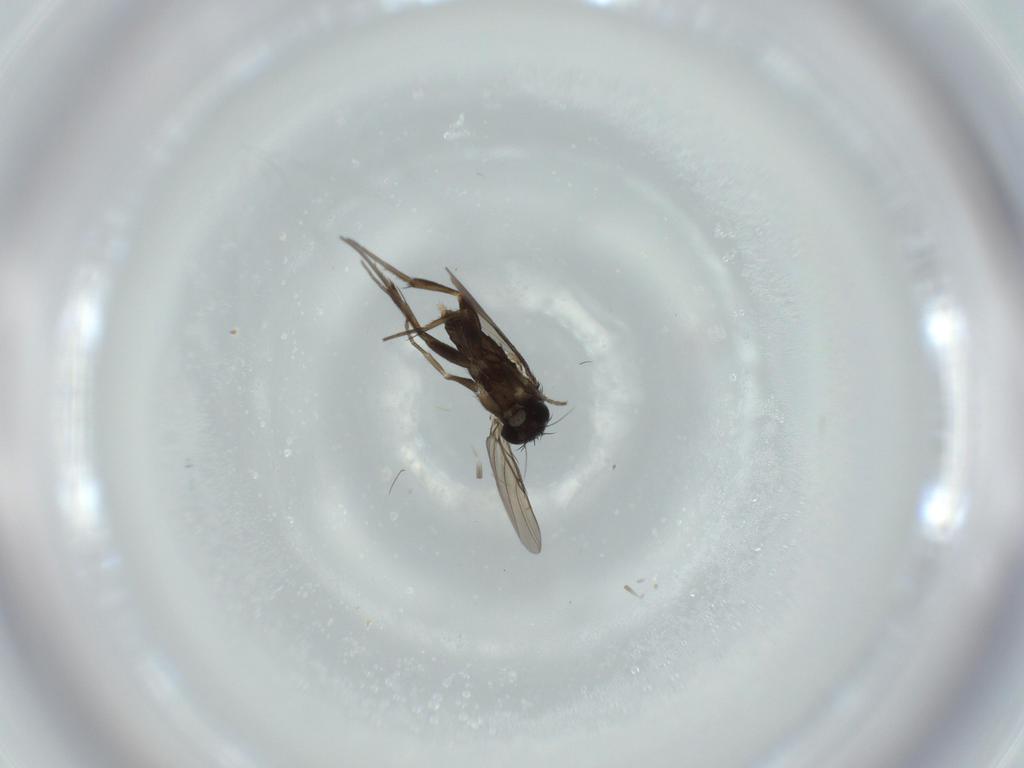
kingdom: Animalia
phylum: Arthropoda
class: Insecta
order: Diptera
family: Phoridae
